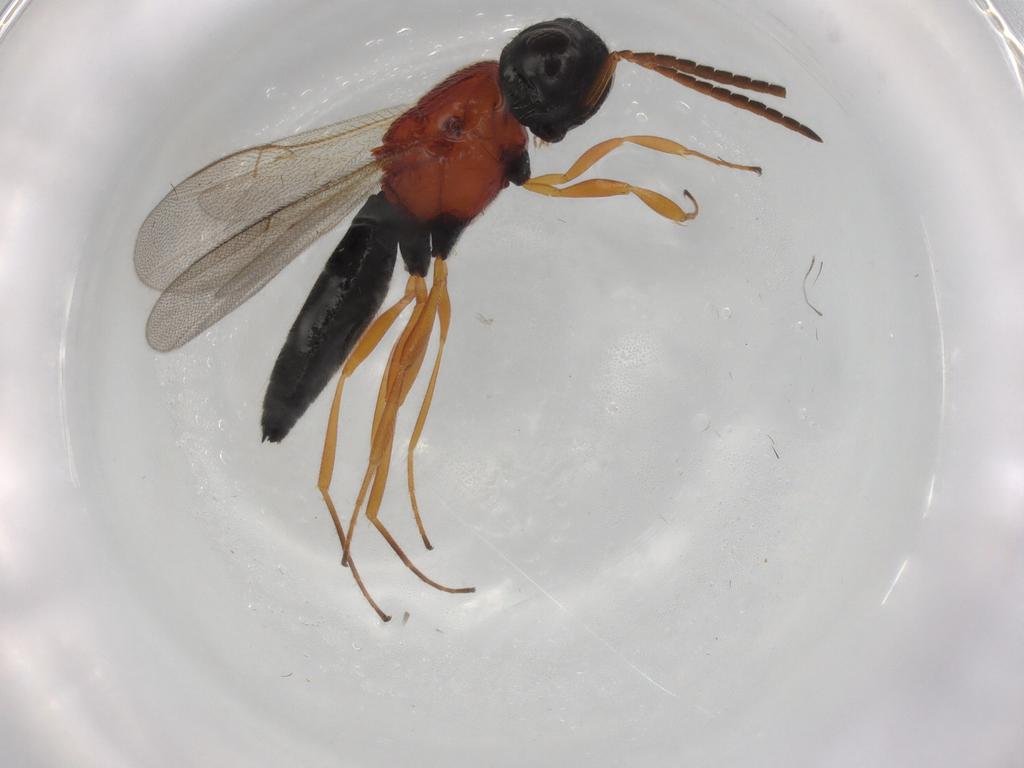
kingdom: Animalia
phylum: Arthropoda
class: Insecta
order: Hymenoptera
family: Scelionidae
